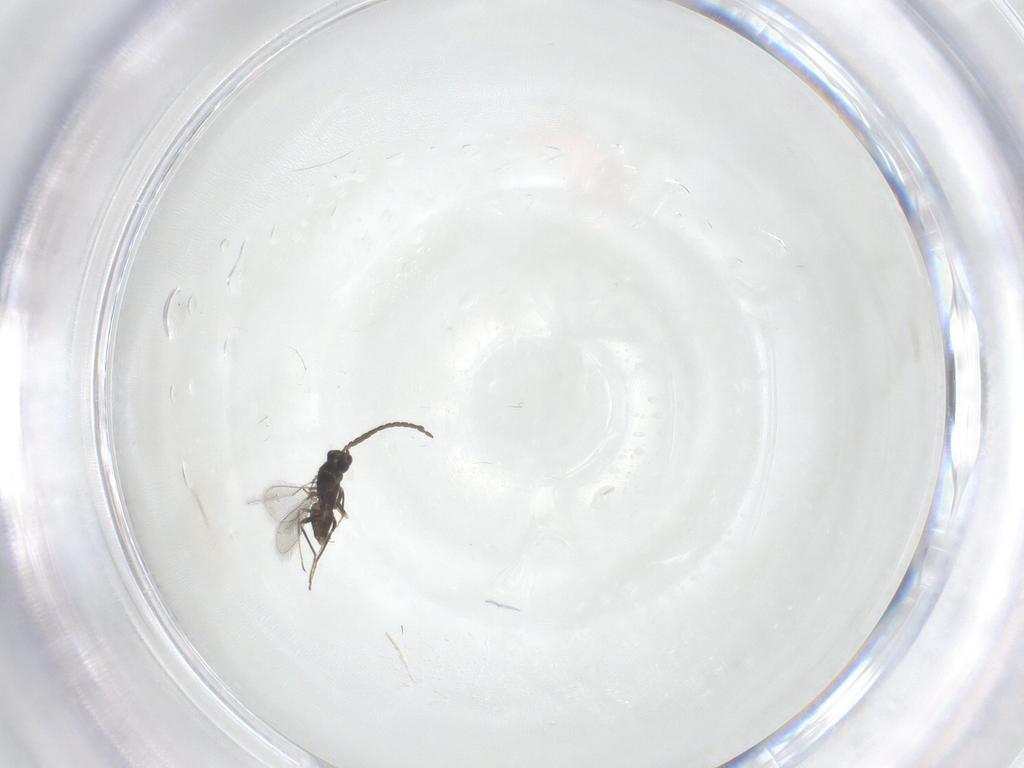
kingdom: Animalia
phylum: Arthropoda
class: Insecta
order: Hymenoptera
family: Mymaridae
